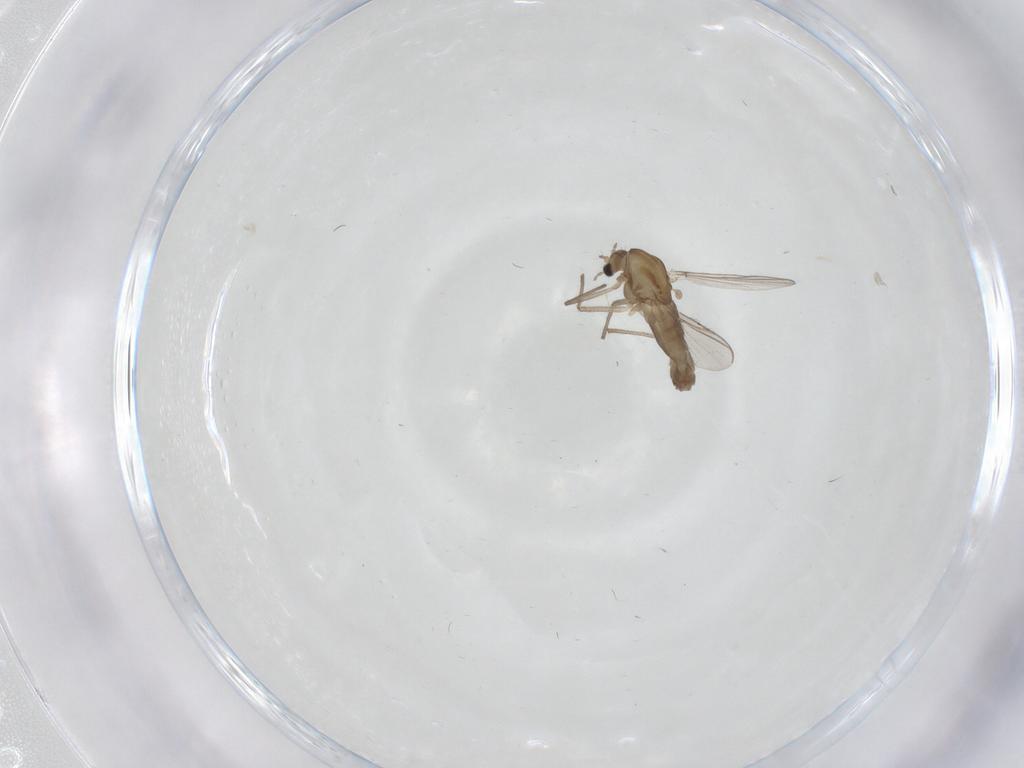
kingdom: Animalia
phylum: Arthropoda
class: Insecta
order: Diptera
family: Chironomidae
